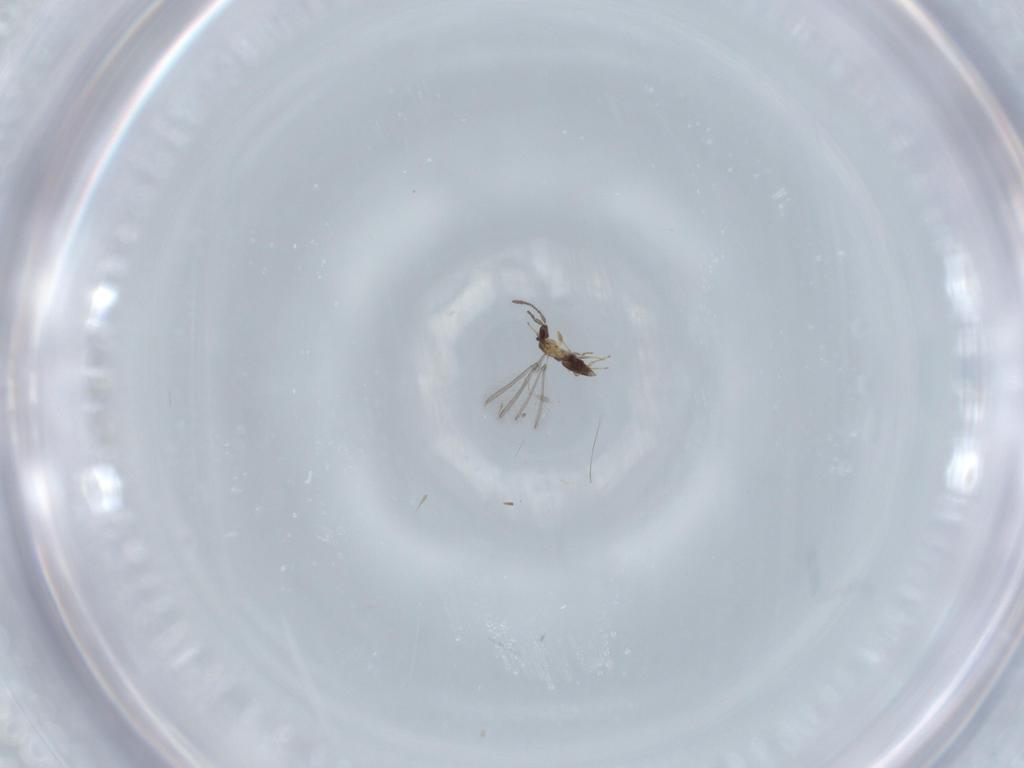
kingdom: Animalia
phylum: Arthropoda
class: Insecta
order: Hymenoptera
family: Mymaridae
